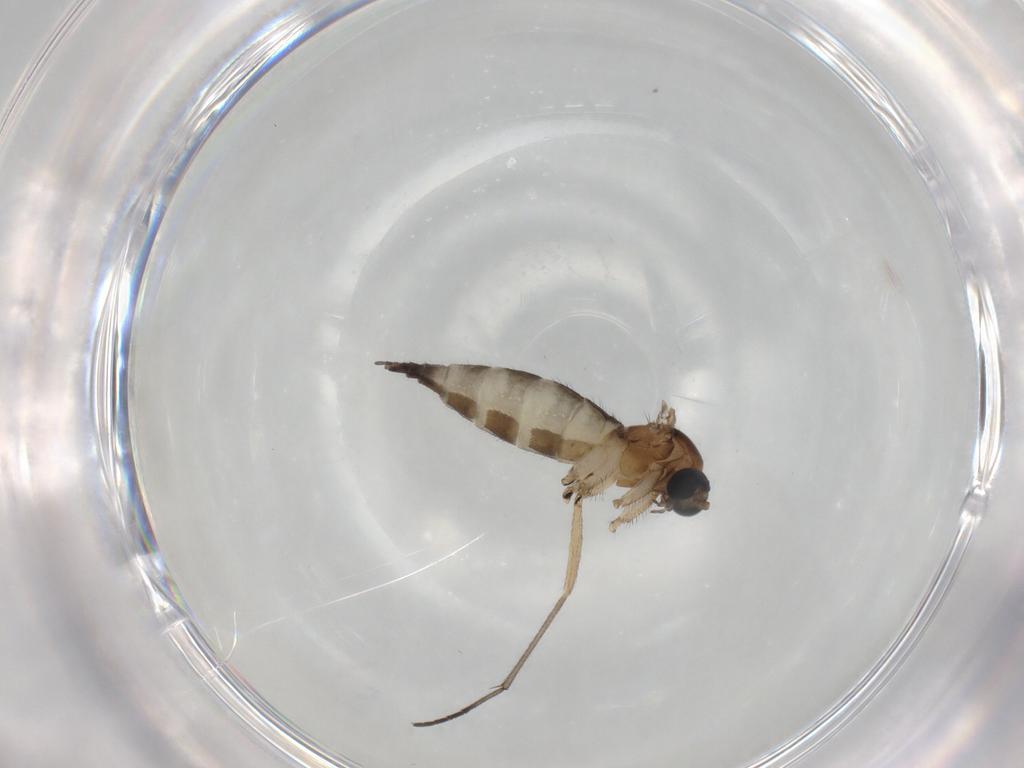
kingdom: Animalia
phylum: Arthropoda
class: Insecta
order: Diptera
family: Sciaridae
